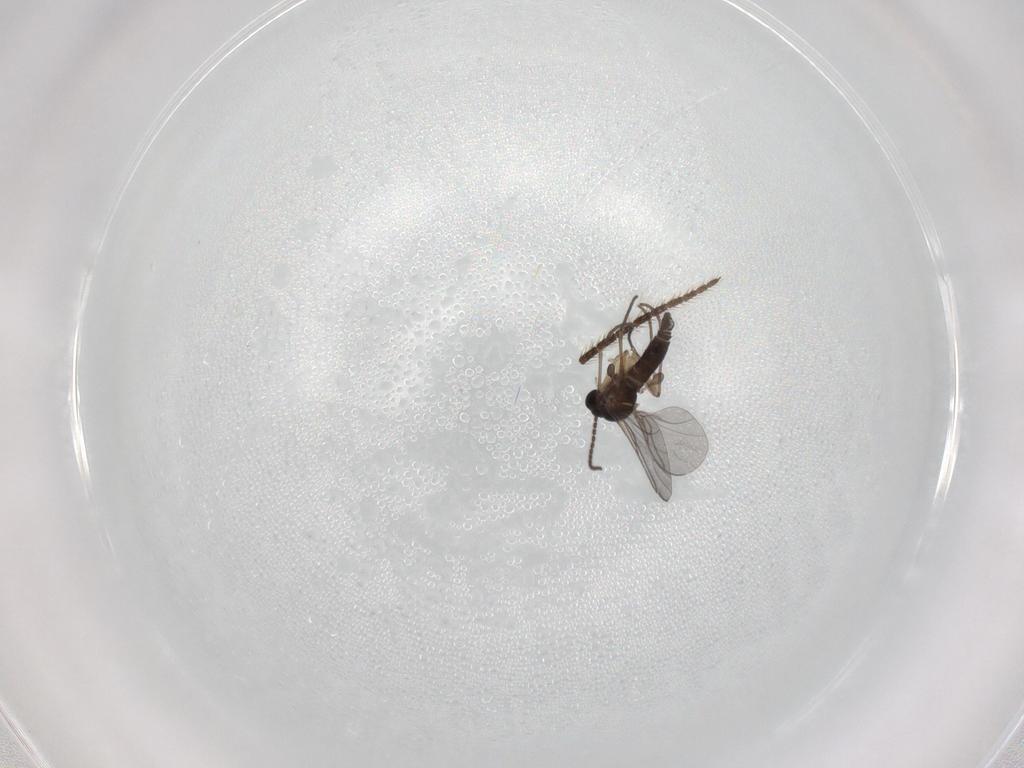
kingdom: Animalia
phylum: Arthropoda
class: Insecta
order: Diptera
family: Sciaridae
